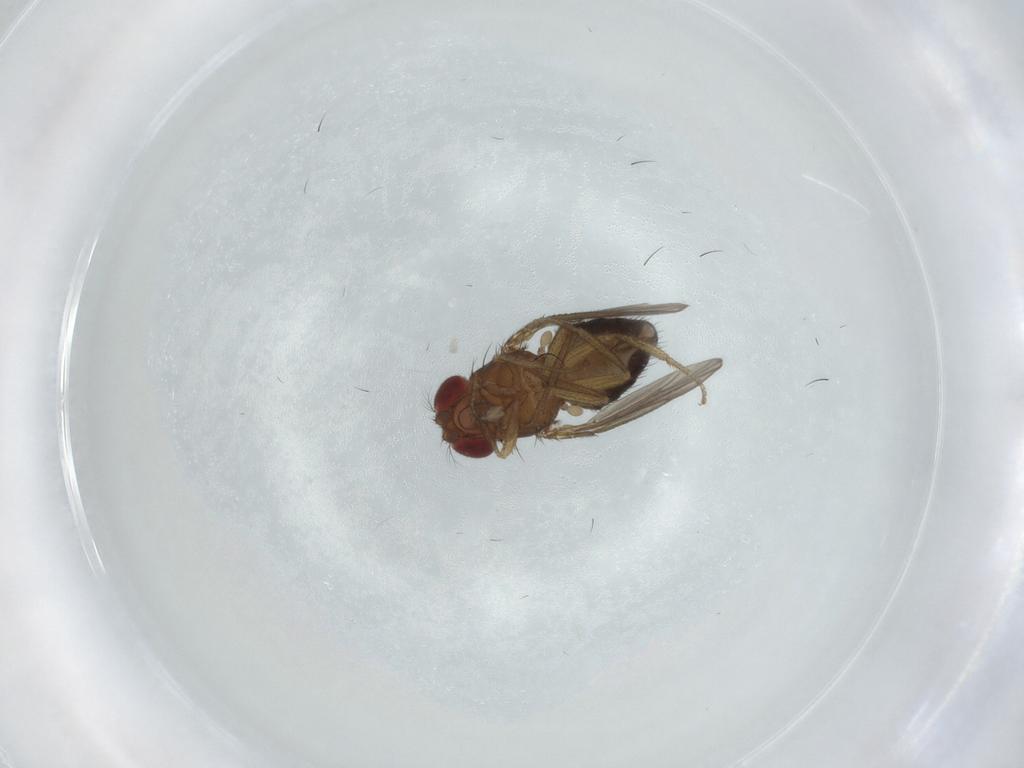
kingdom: Animalia
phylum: Arthropoda
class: Insecta
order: Diptera
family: Drosophilidae
